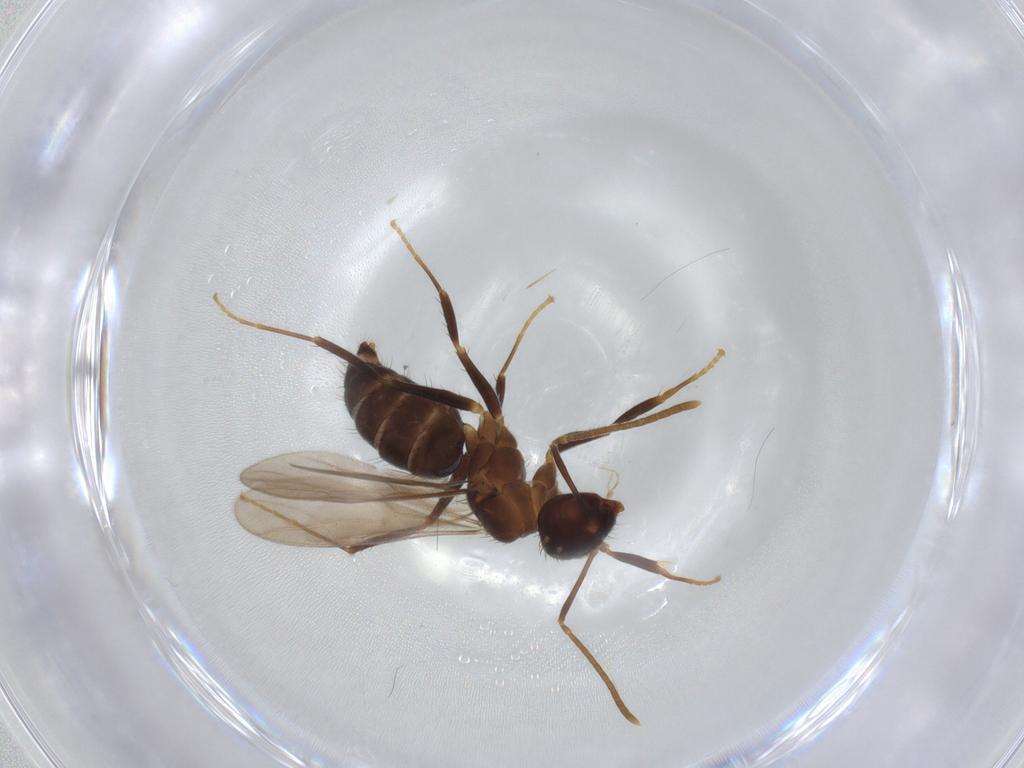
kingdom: Animalia
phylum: Arthropoda
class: Insecta
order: Hymenoptera
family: Formicidae
